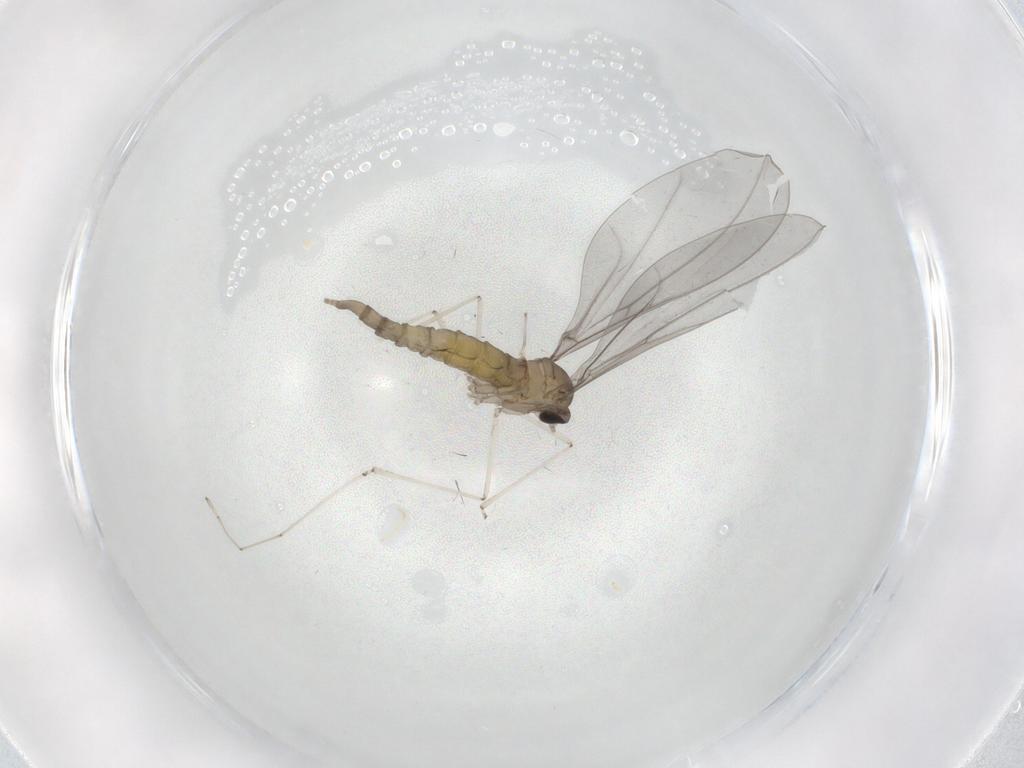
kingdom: Animalia
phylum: Arthropoda
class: Insecta
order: Diptera
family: Cecidomyiidae
